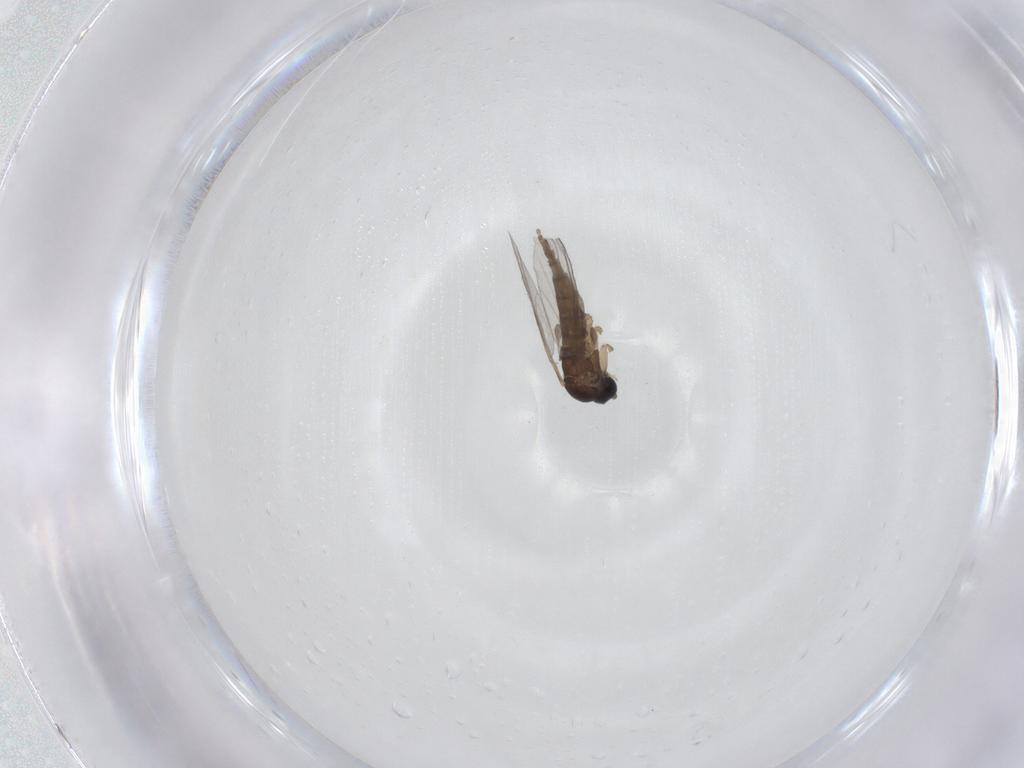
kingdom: Animalia
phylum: Arthropoda
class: Insecta
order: Diptera
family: Sciaridae
